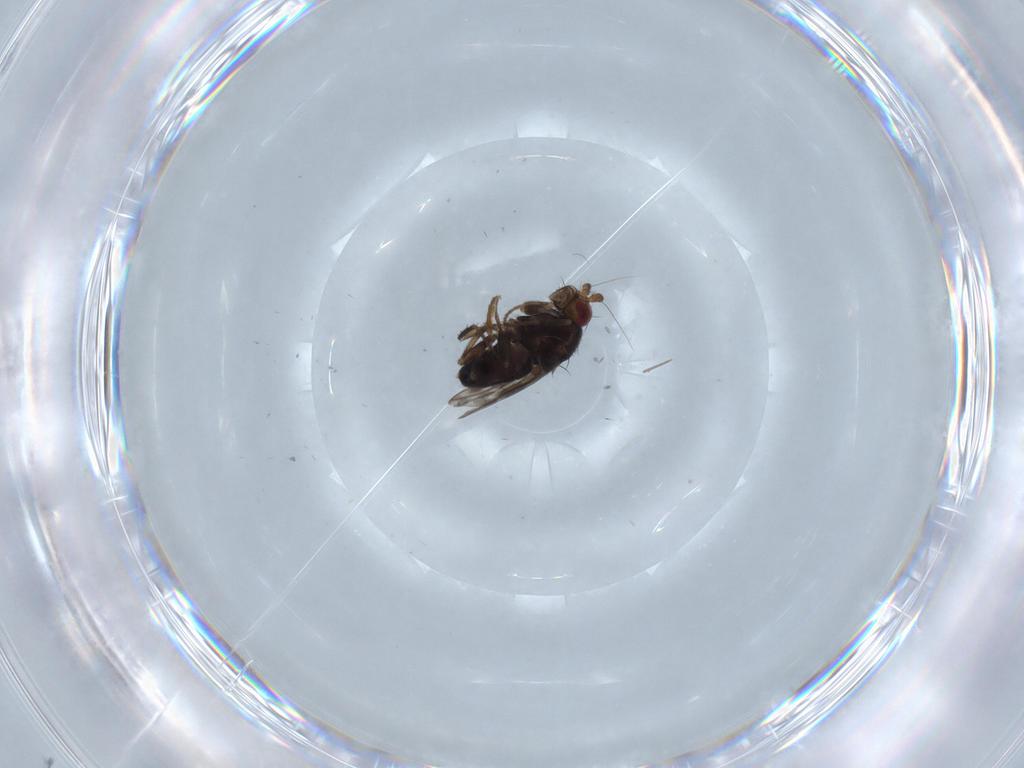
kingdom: Animalia
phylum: Arthropoda
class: Insecta
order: Diptera
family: Sphaeroceridae
